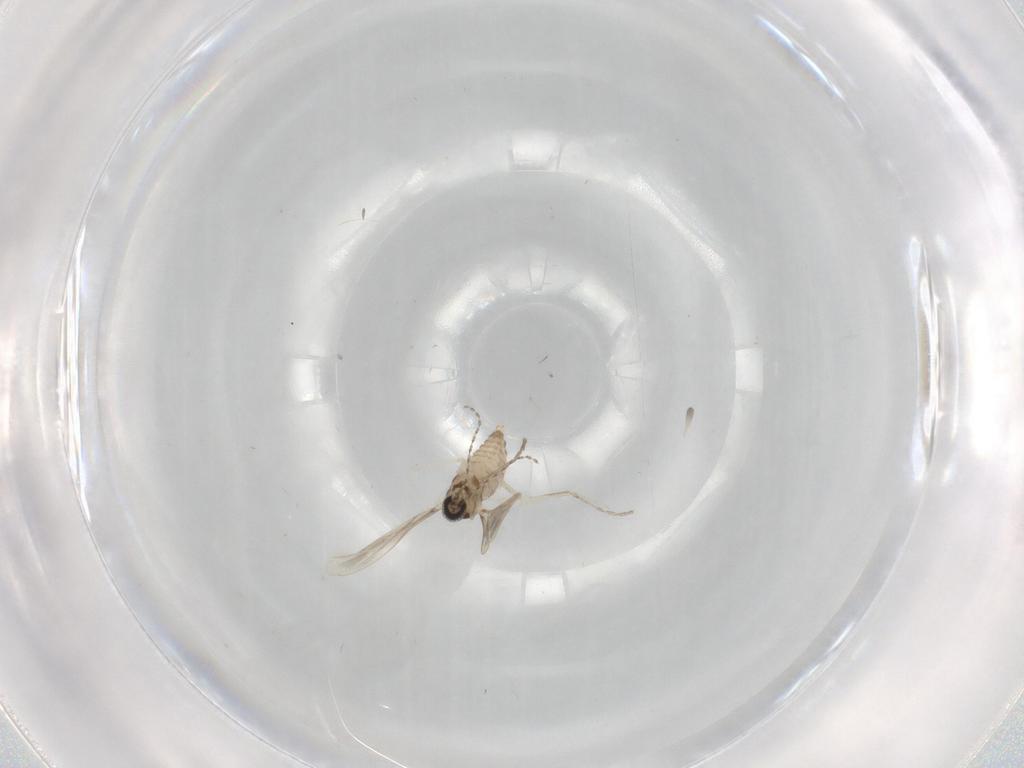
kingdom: Animalia
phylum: Arthropoda
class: Insecta
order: Diptera
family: Cecidomyiidae
